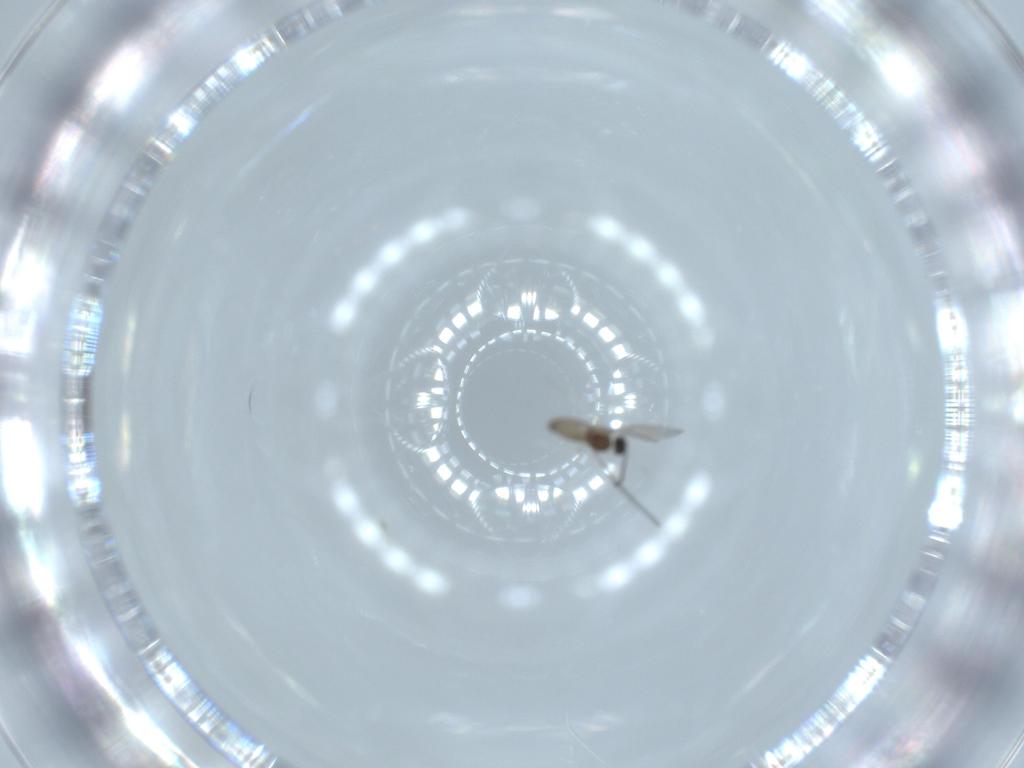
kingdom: Animalia
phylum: Arthropoda
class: Insecta
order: Diptera
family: Cecidomyiidae
